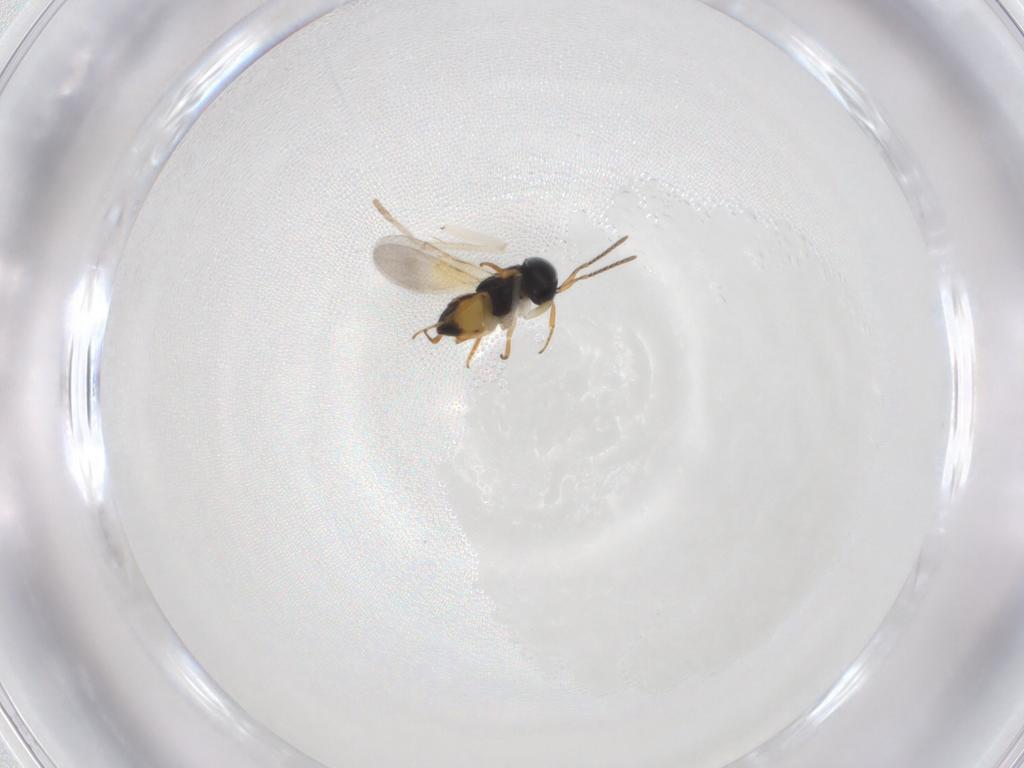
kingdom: Animalia
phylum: Arthropoda
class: Insecta
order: Diptera
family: Psychodidae
